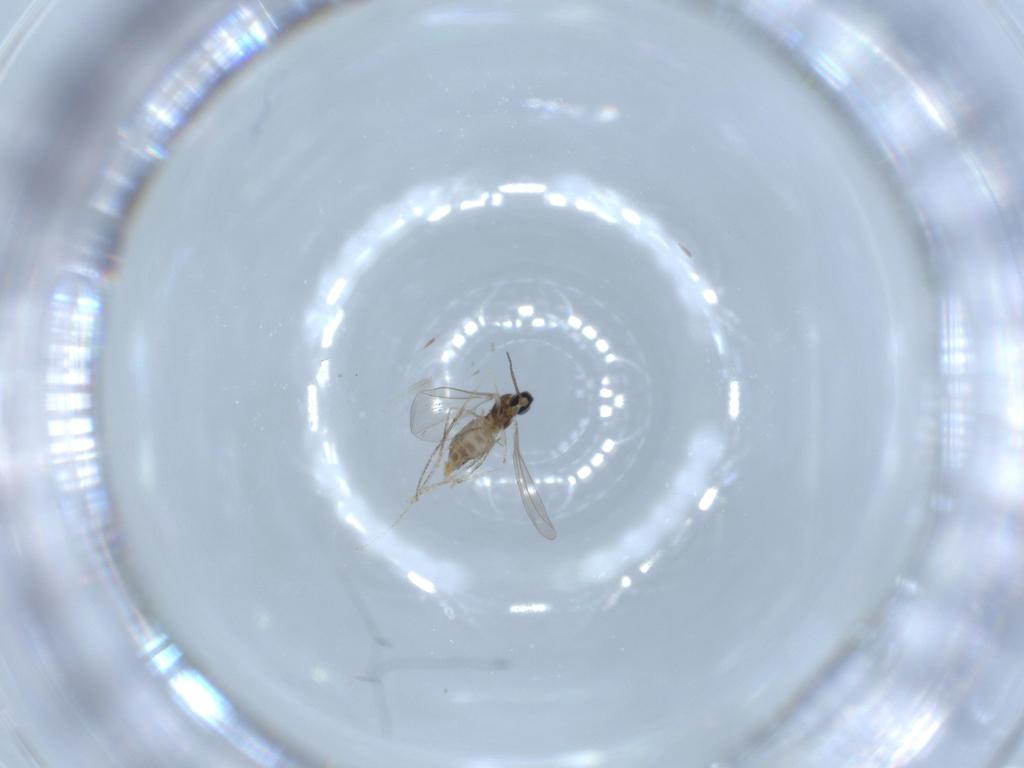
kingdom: Animalia
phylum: Arthropoda
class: Insecta
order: Diptera
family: Cecidomyiidae
